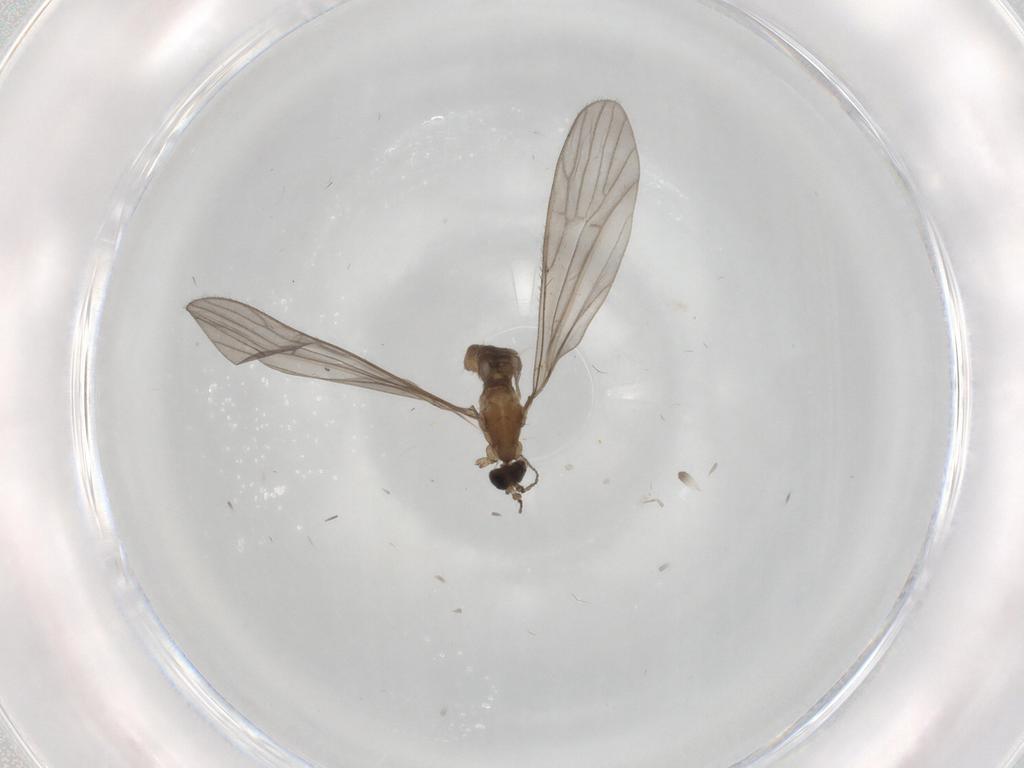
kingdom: Animalia
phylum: Arthropoda
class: Insecta
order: Diptera
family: Limoniidae
